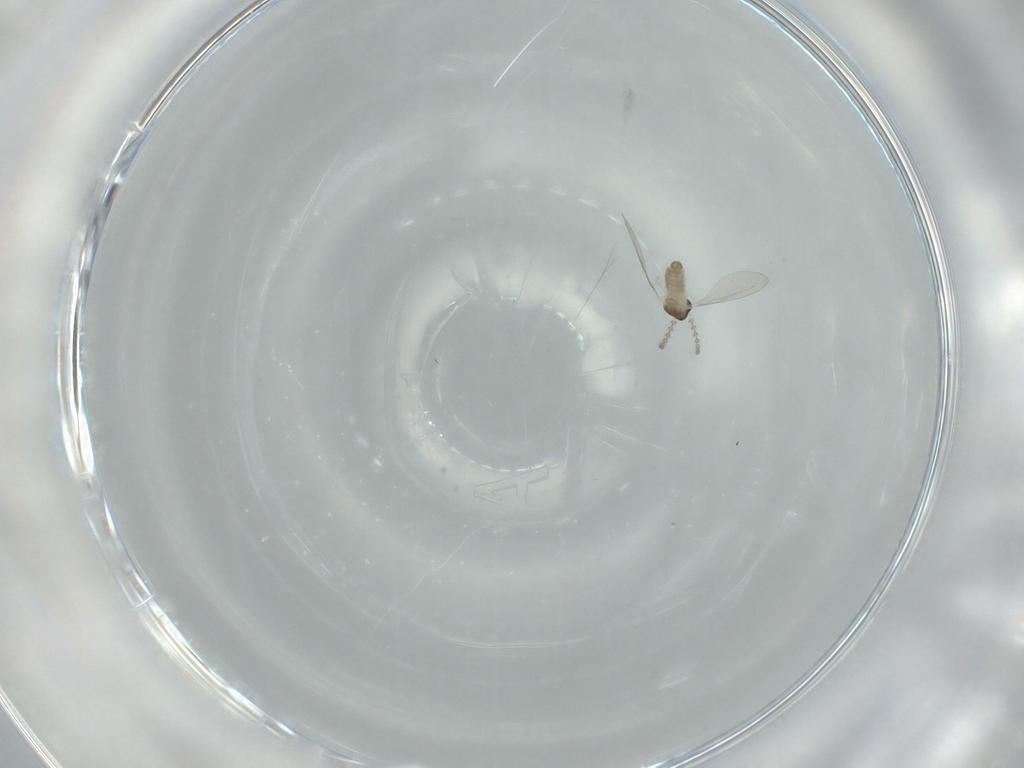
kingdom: Animalia
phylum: Arthropoda
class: Insecta
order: Diptera
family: Cecidomyiidae
